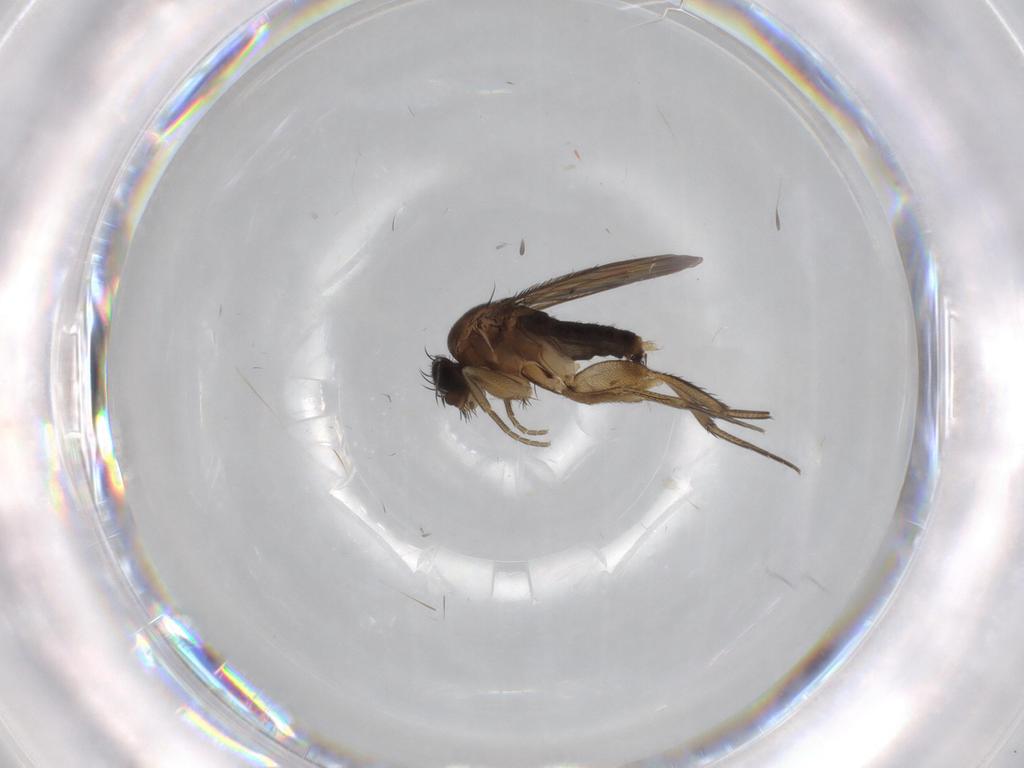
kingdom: Animalia
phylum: Arthropoda
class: Insecta
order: Diptera
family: Phoridae
